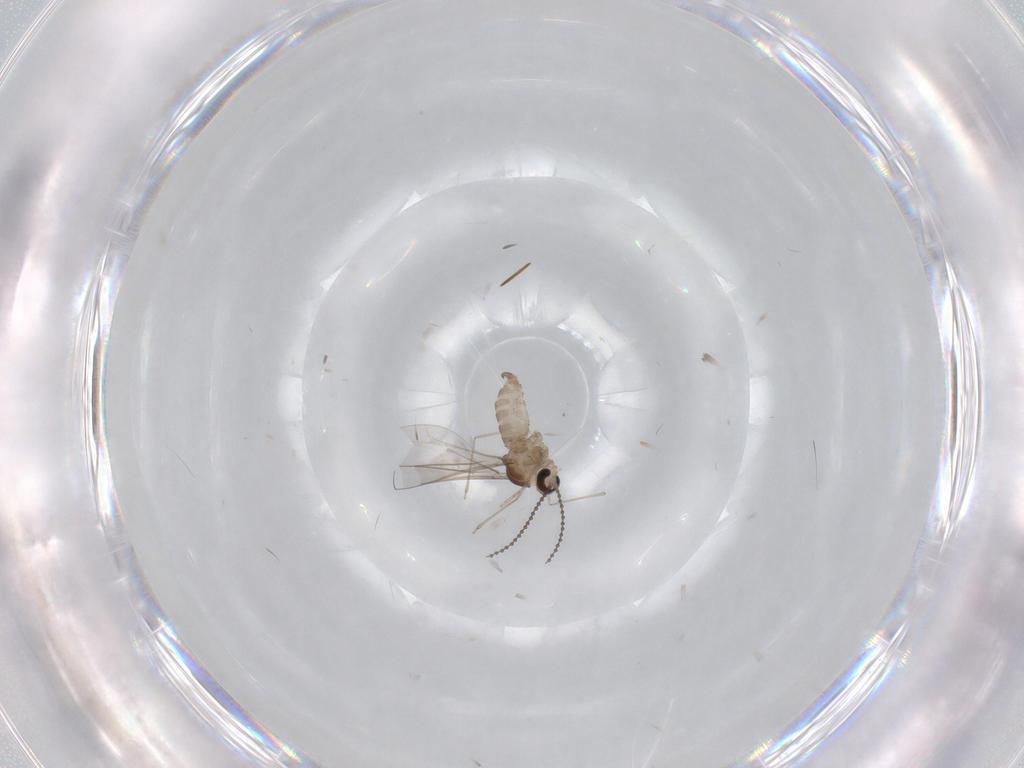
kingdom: Animalia
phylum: Arthropoda
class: Insecta
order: Diptera
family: Cecidomyiidae
